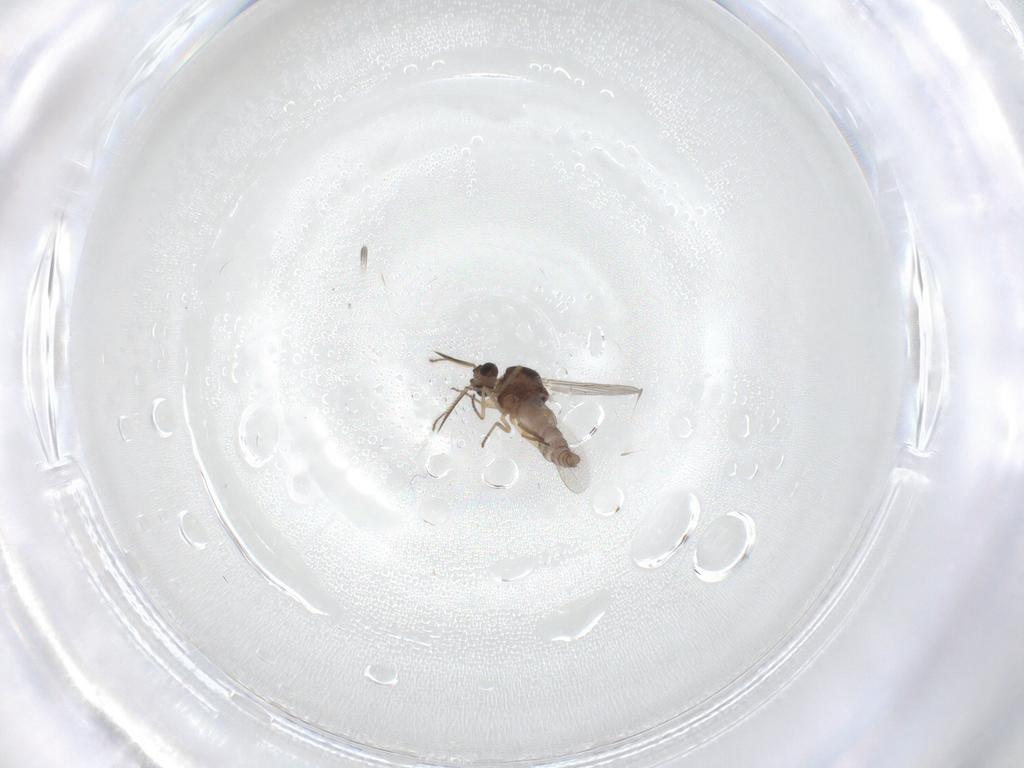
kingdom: Animalia
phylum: Arthropoda
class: Insecta
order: Diptera
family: Ceratopogonidae
